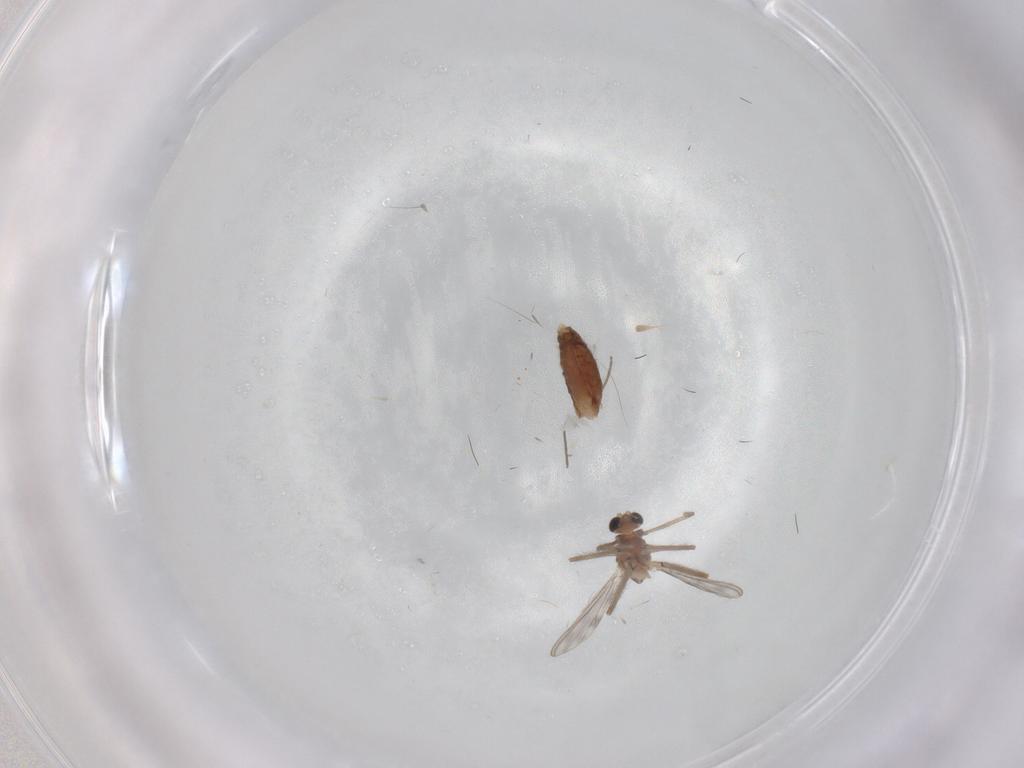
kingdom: Animalia
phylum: Arthropoda
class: Insecta
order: Diptera
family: Chironomidae
